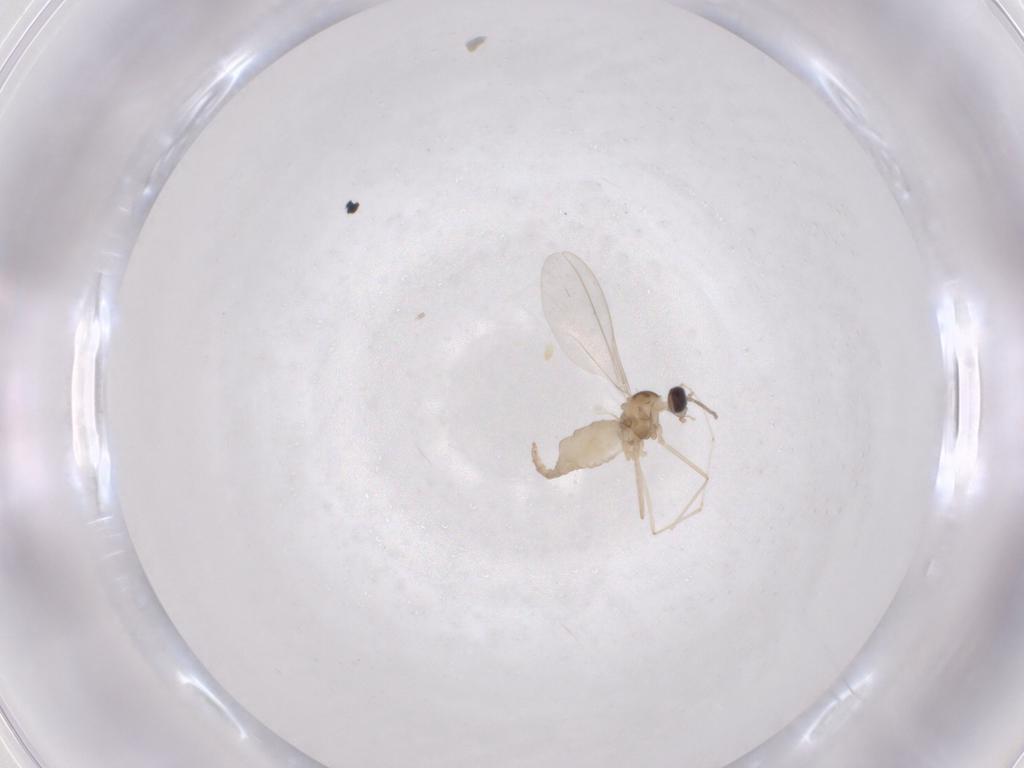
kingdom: Animalia
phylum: Arthropoda
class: Insecta
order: Diptera
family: Cecidomyiidae
